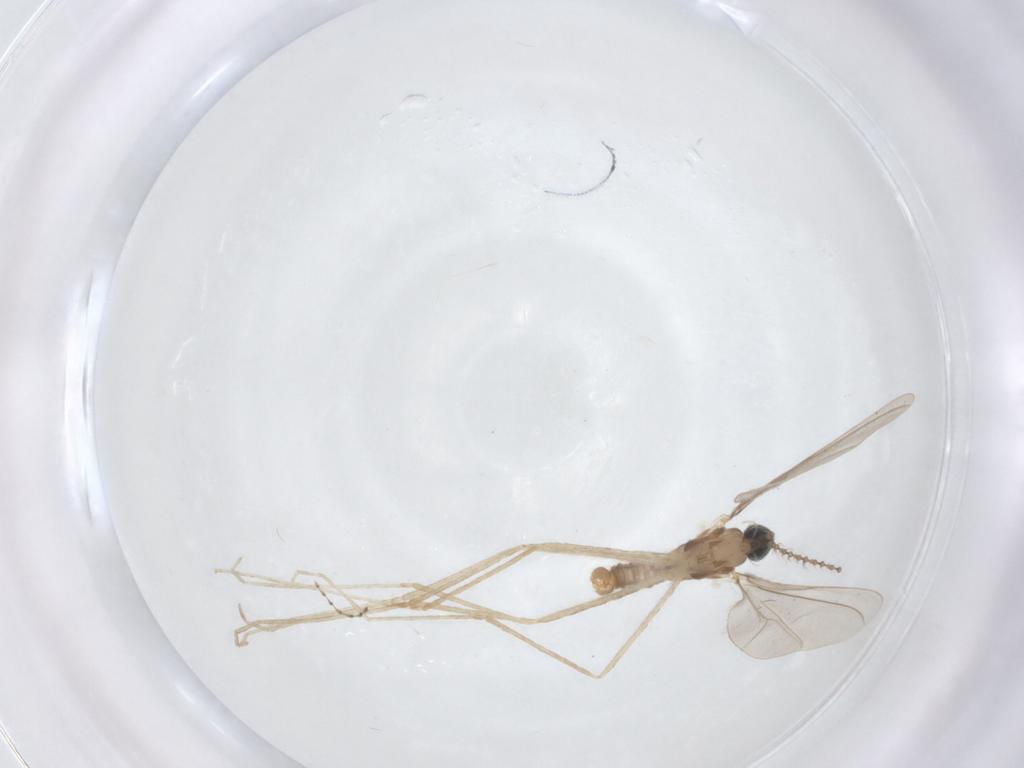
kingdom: Animalia
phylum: Arthropoda
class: Insecta
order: Diptera
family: Cecidomyiidae
